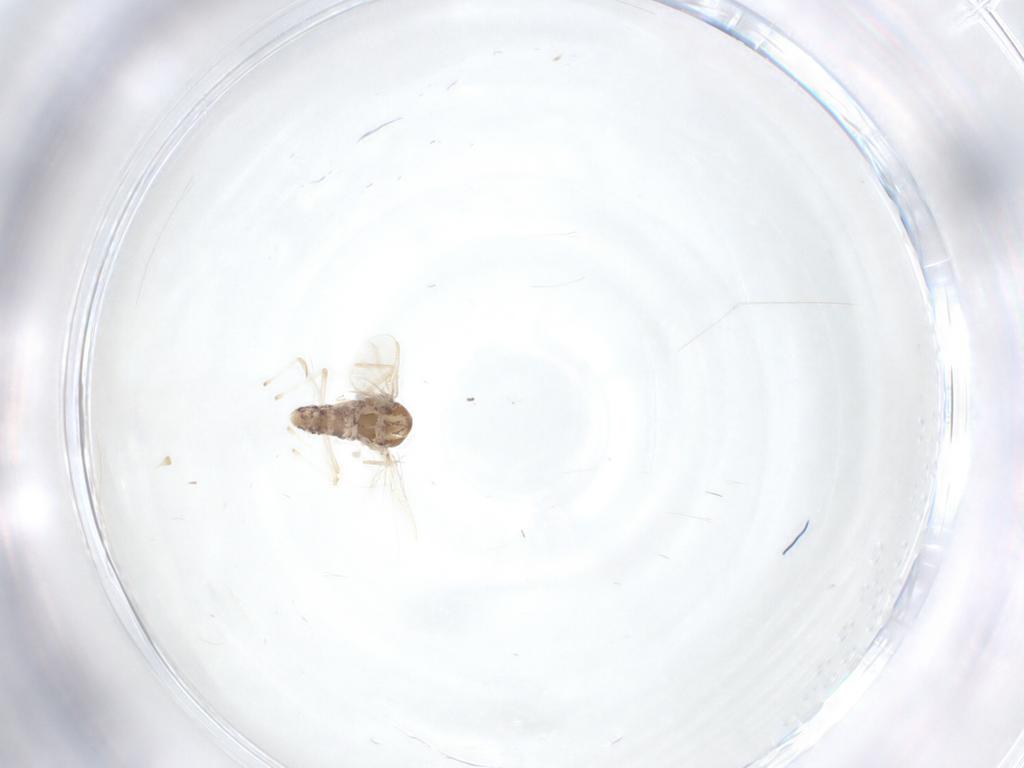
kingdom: Animalia
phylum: Arthropoda
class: Insecta
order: Diptera
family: Chironomidae
